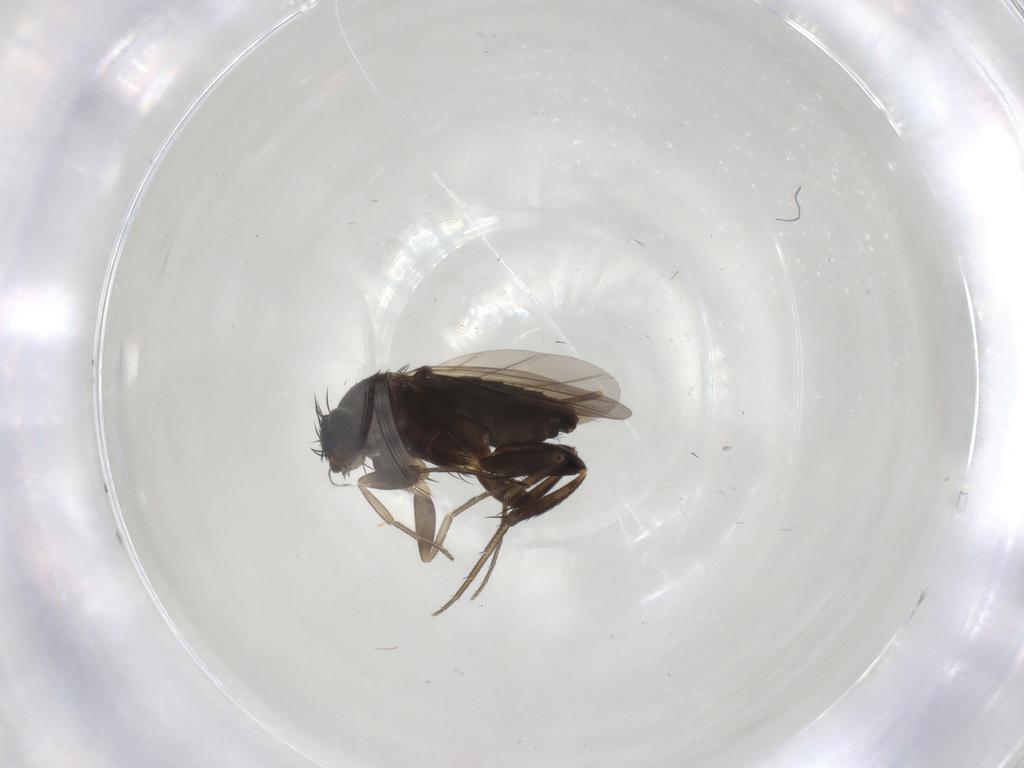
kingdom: Animalia
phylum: Arthropoda
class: Insecta
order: Diptera
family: Phoridae
